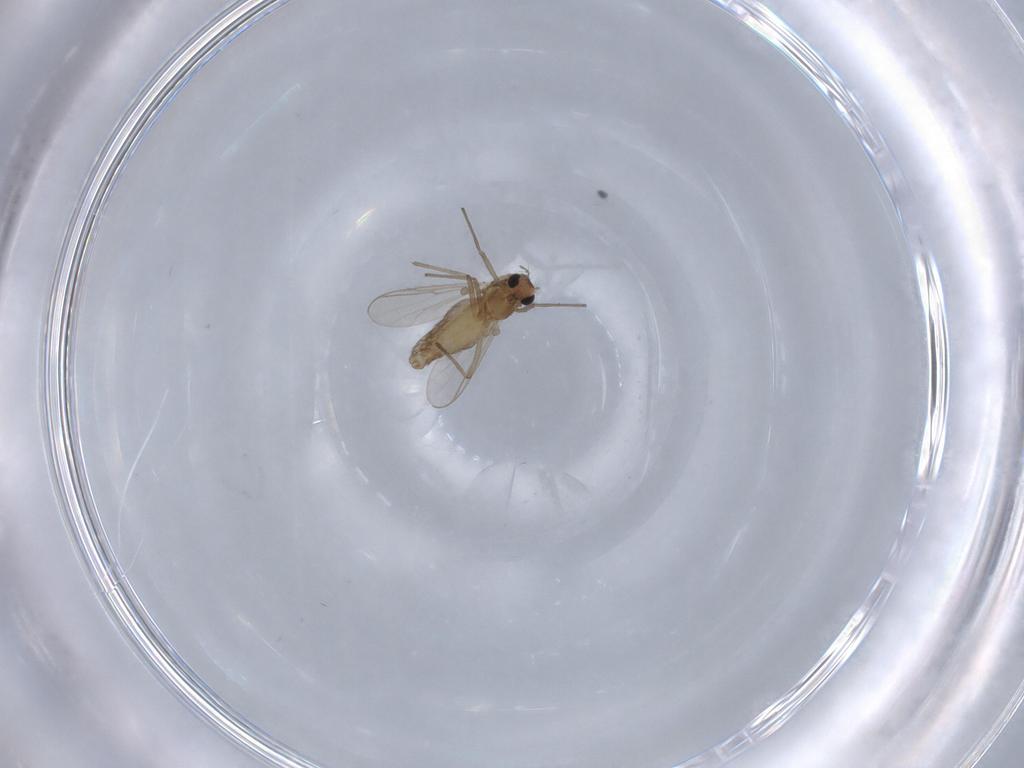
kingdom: Animalia
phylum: Arthropoda
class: Insecta
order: Diptera
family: Chironomidae
